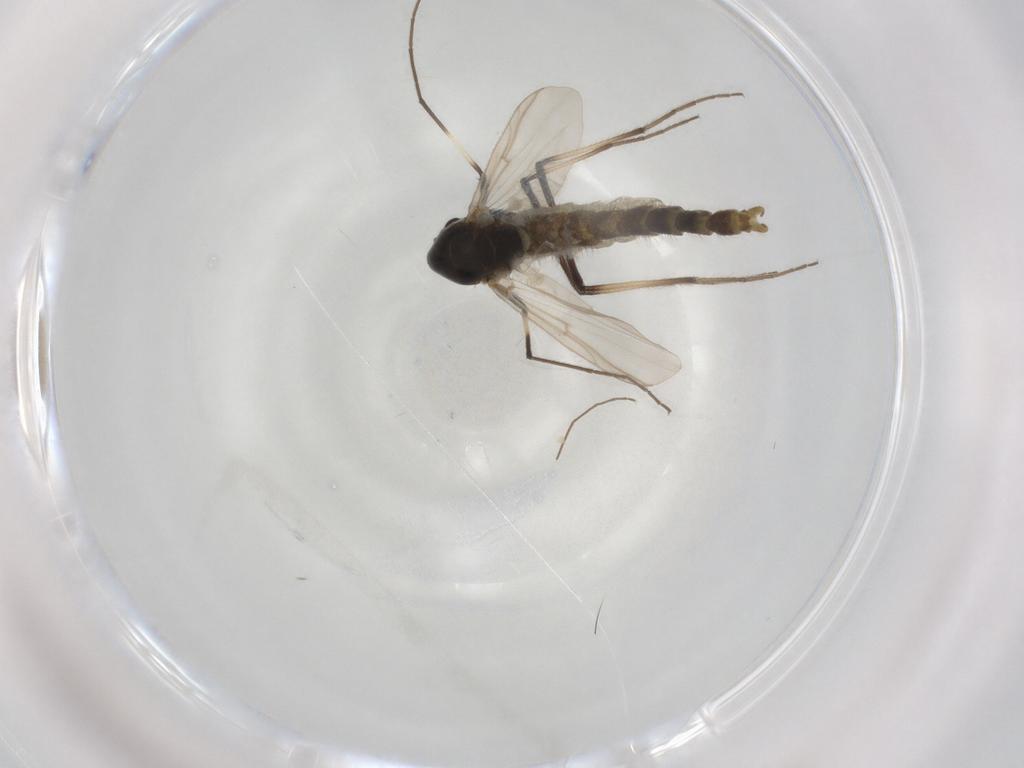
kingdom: Animalia
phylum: Arthropoda
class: Insecta
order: Diptera
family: Chironomidae
